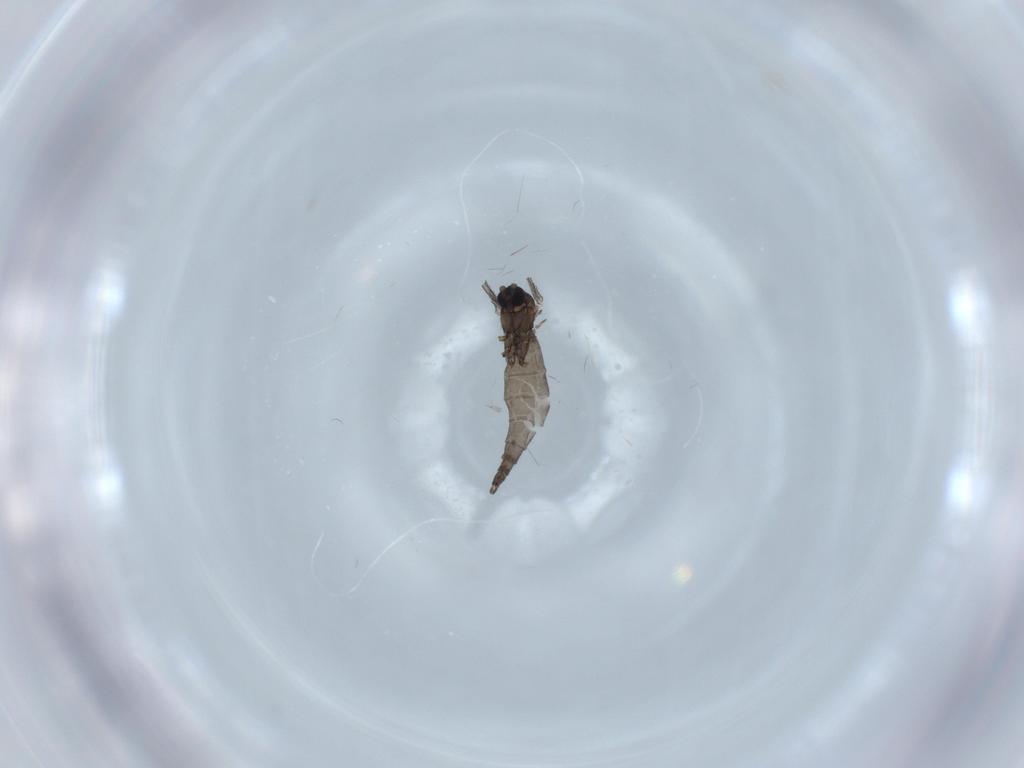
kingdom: Animalia
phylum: Arthropoda
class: Insecta
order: Diptera
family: Sciaridae
